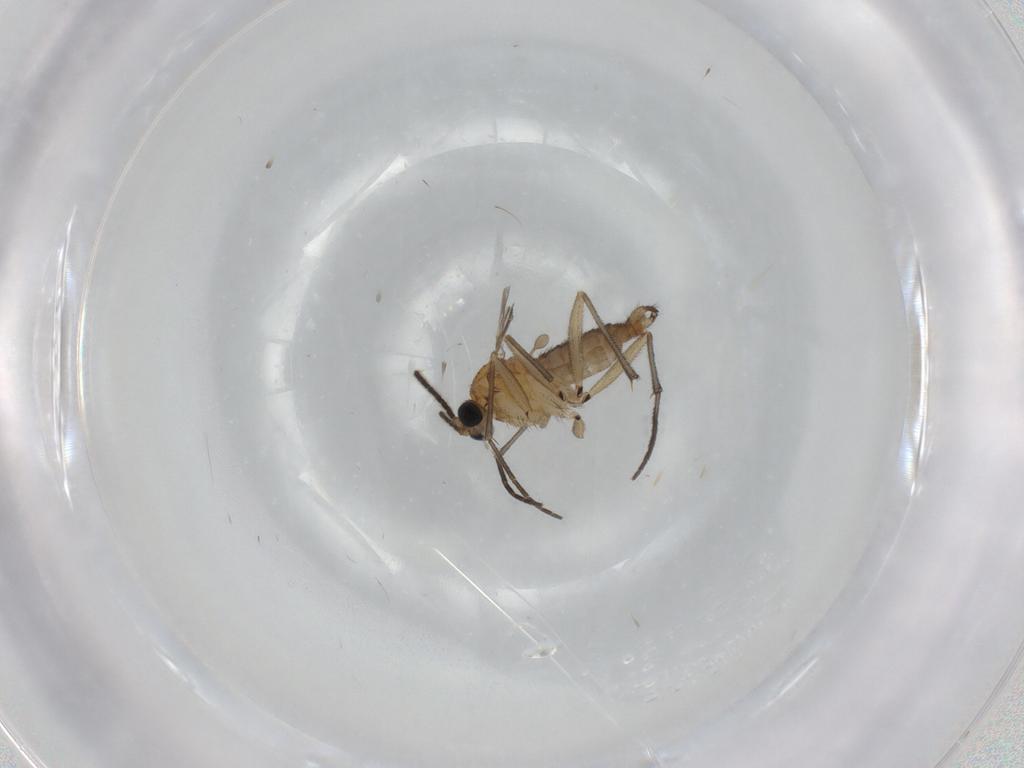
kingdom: Animalia
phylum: Arthropoda
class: Insecta
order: Diptera
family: Sciaridae
